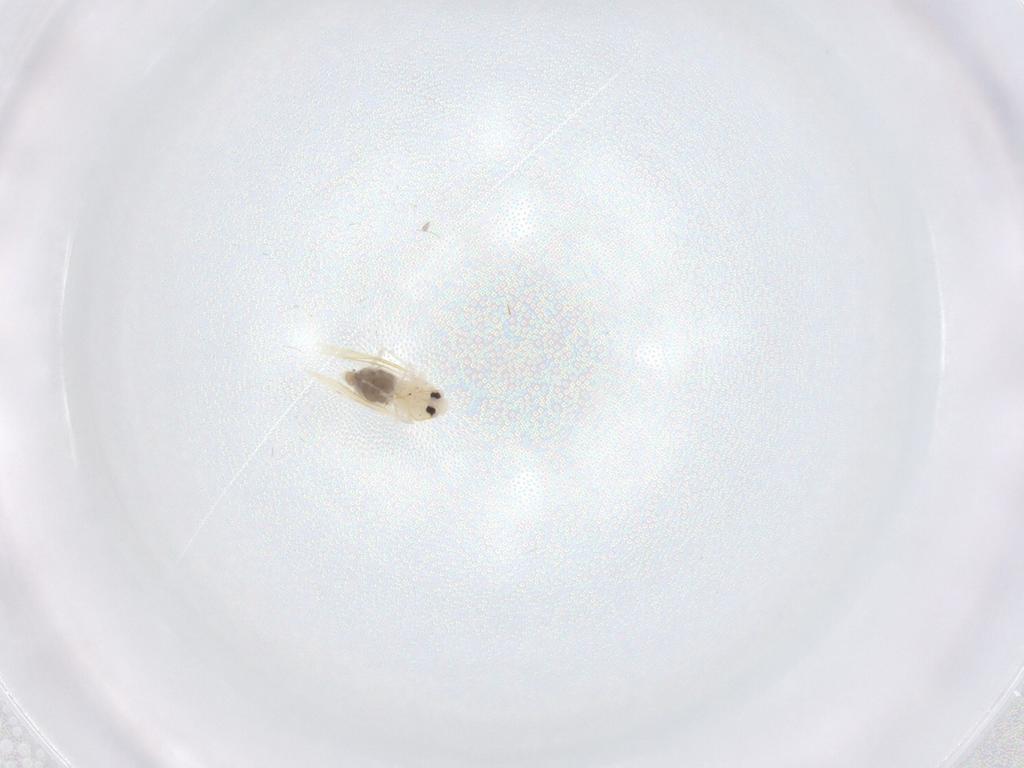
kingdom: Animalia
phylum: Arthropoda
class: Insecta
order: Hemiptera
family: Aleyrodidae
